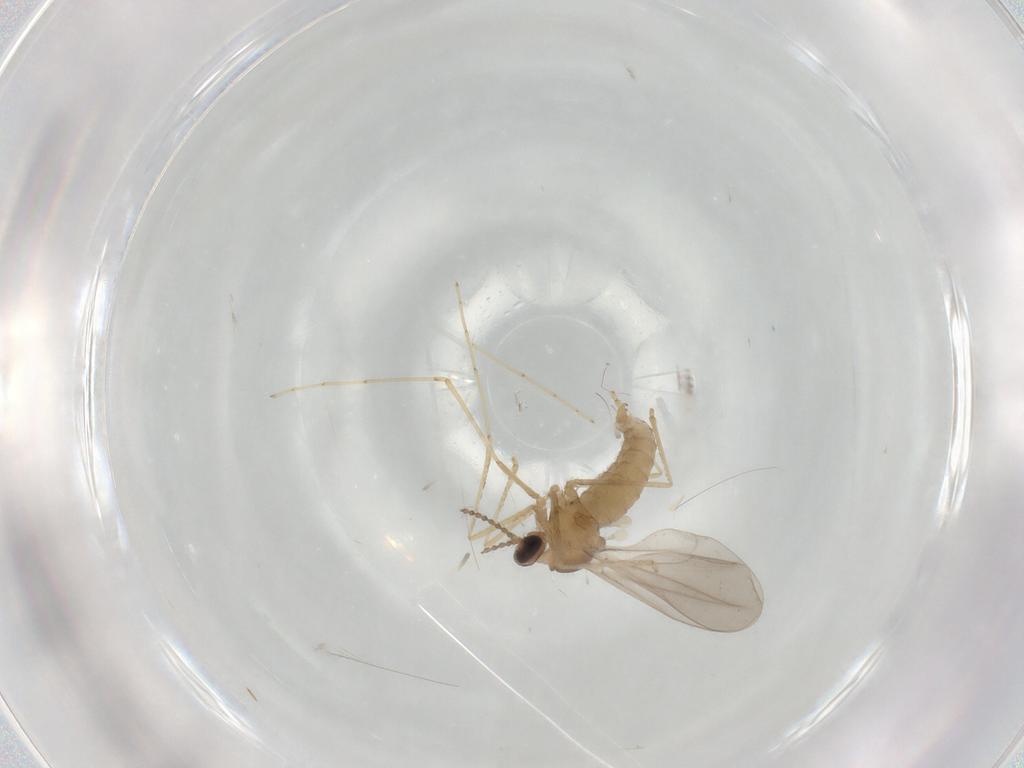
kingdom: Animalia
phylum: Arthropoda
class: Insecta
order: Diptera
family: Cecidomyiidae
